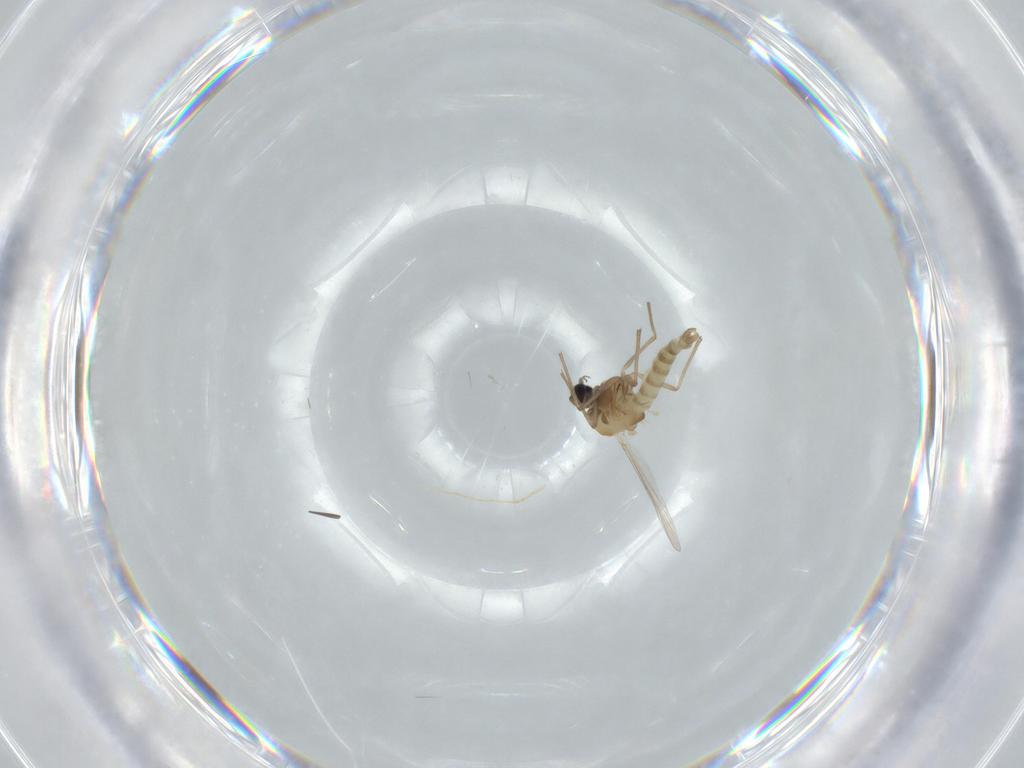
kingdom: Animalia
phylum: Arthropoda
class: Insecta
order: Diptera
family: Chironomidae
